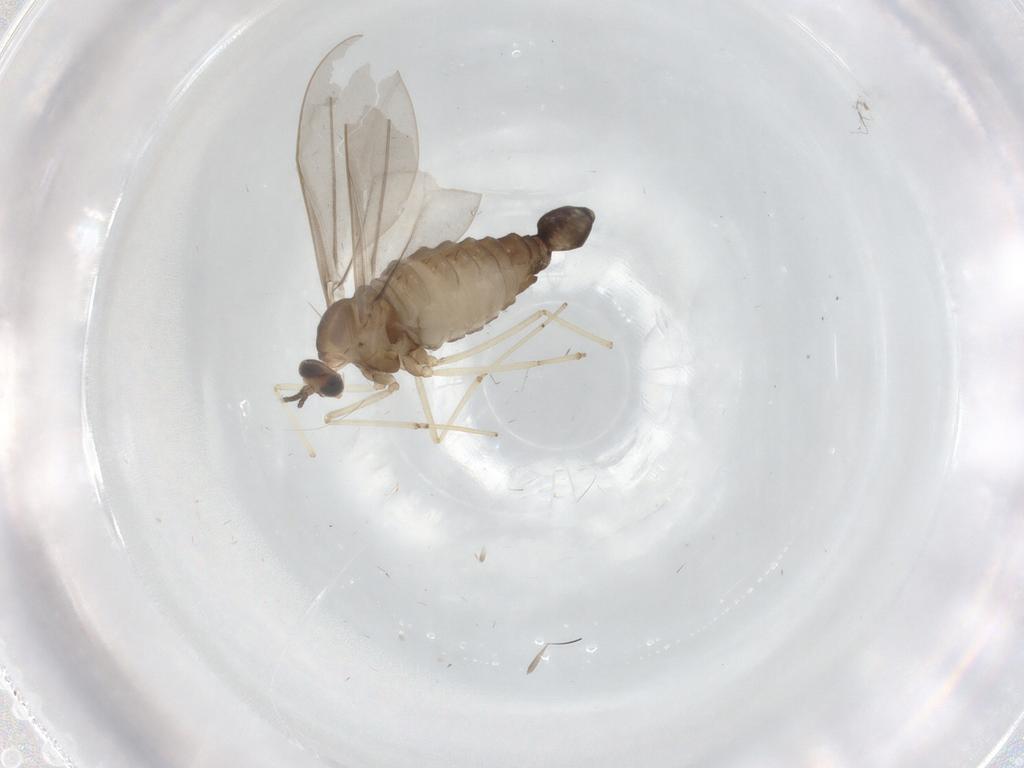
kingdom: Animalia
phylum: Arthropoda
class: Insecta
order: Diptera
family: Cecidomyiidae
